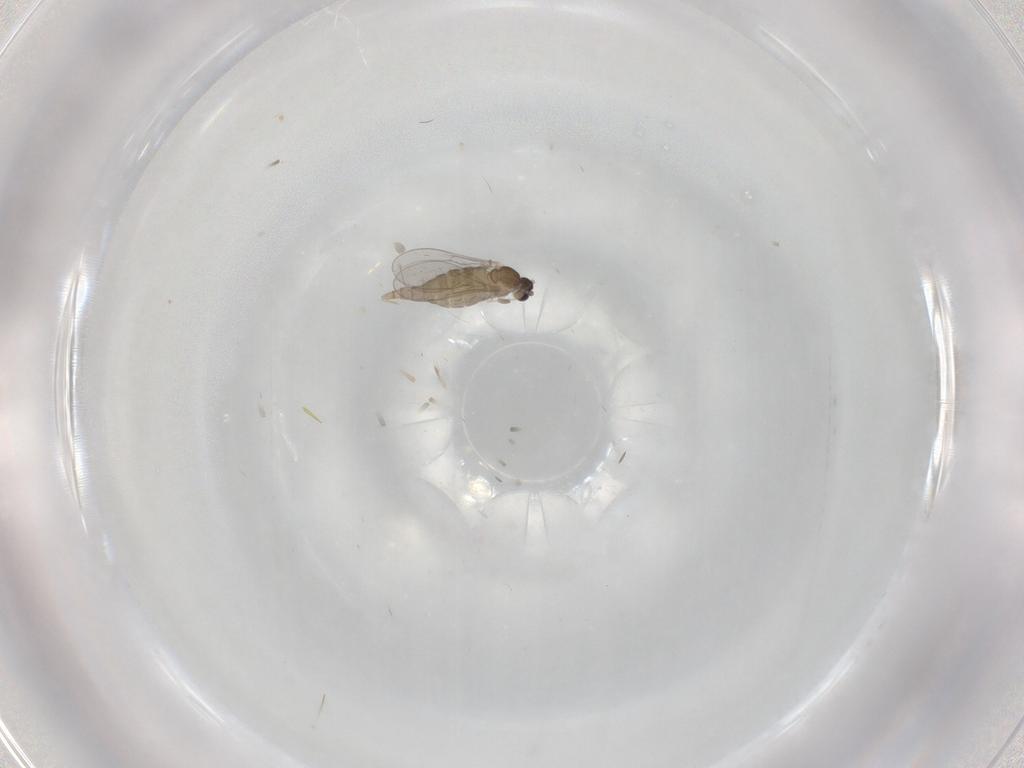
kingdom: Animalia
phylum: Arthropoda
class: Insecta
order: Diptera
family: Cecidomyiidae
